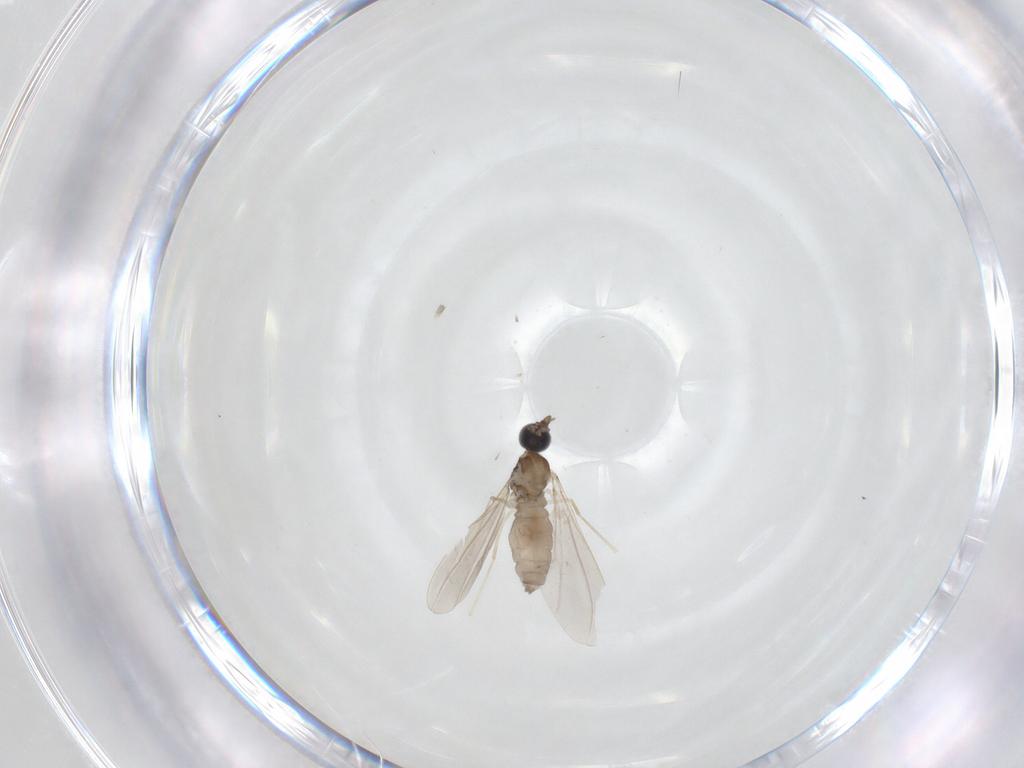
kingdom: Animalia
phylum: Arthropoda
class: Insecta
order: Diptera
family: Cecidomyiidae
